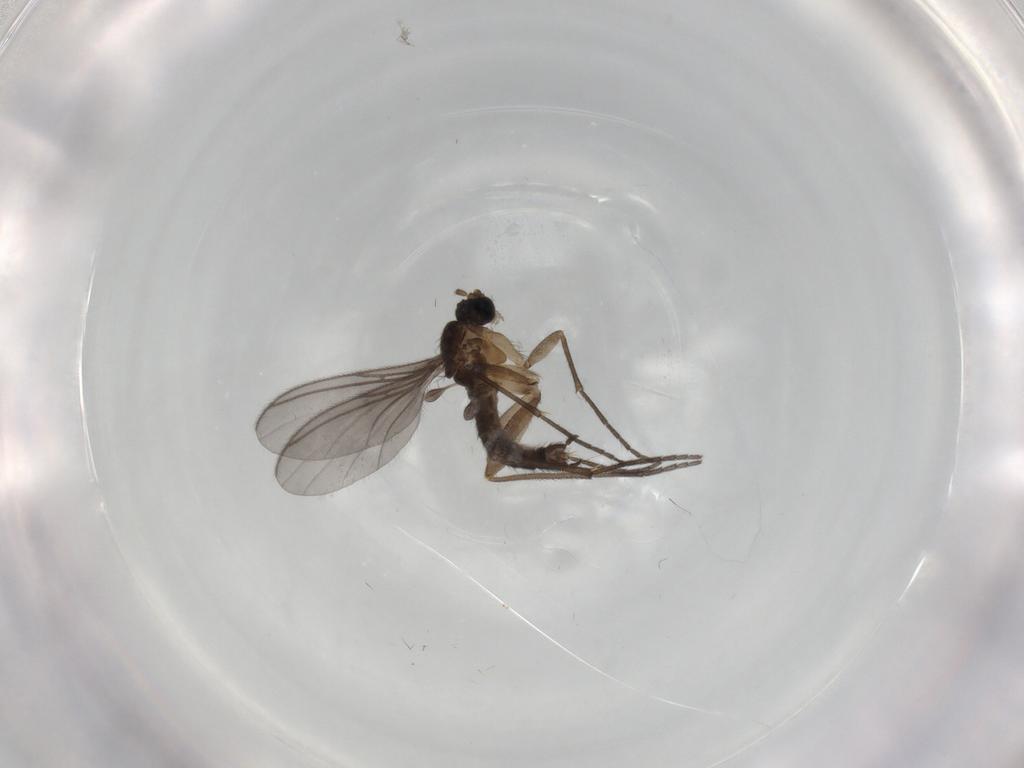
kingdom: Animalia
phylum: Arthropoda
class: Insecta
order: Diptera
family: Sciaridae
